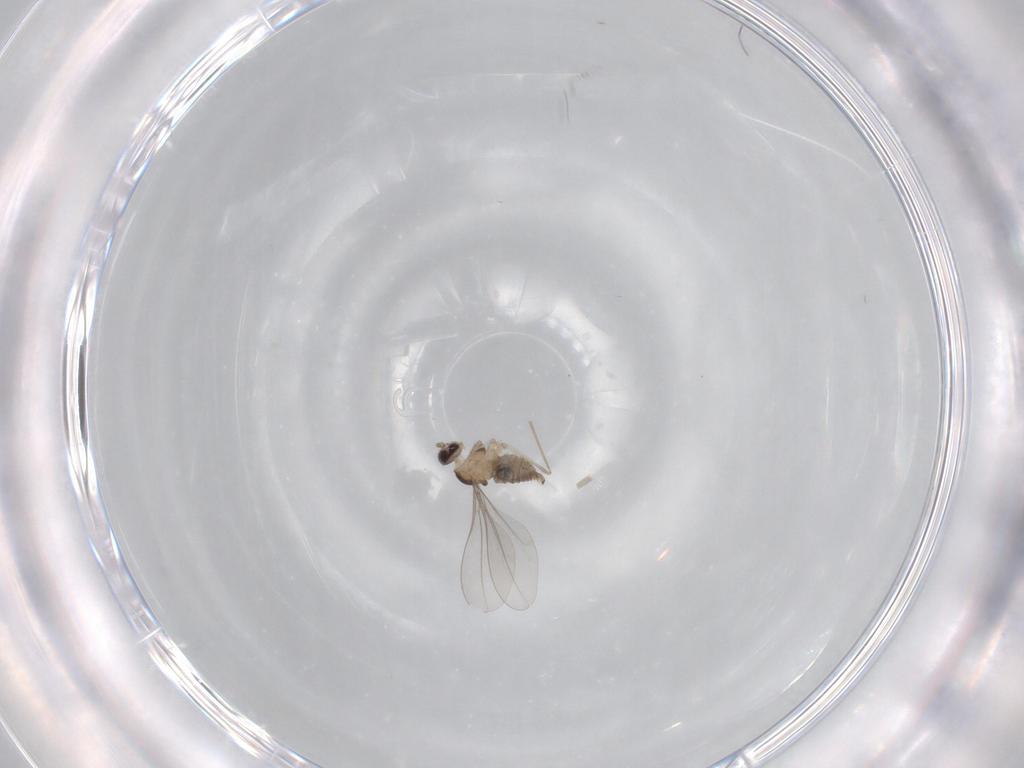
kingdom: Animalia
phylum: Arthropoda
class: Insecta
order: Diptera
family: Cecidomyiidae
